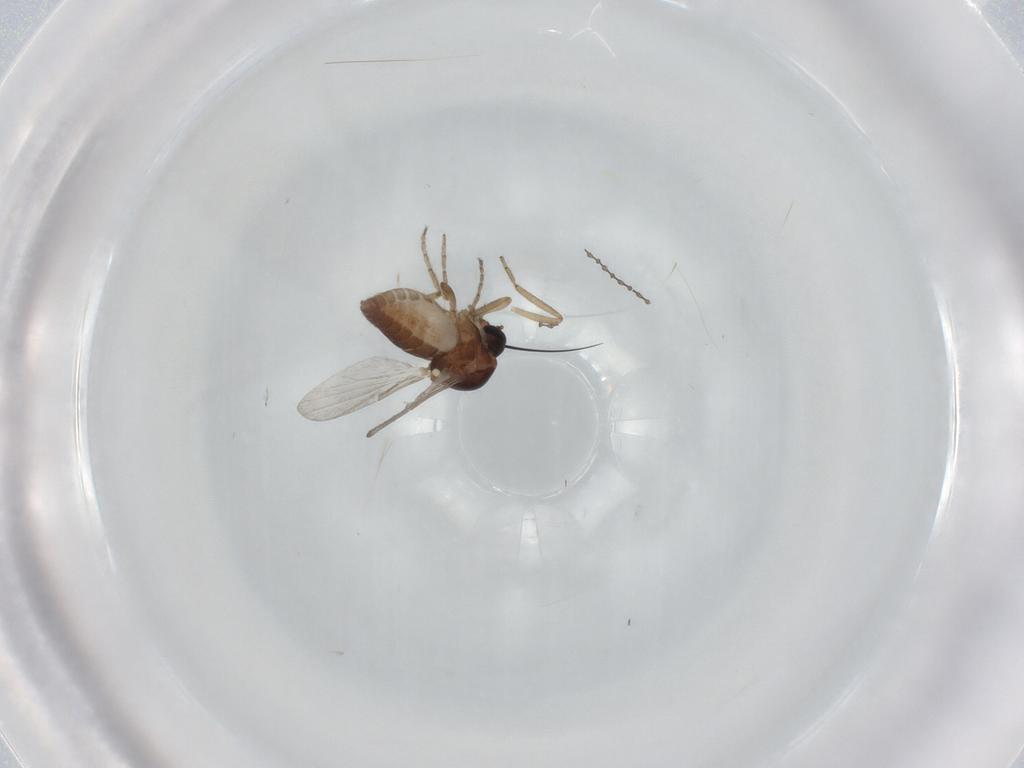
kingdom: Animalia
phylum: Arthropoda
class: Insecta
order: Diptera
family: Ceratopogonidae
